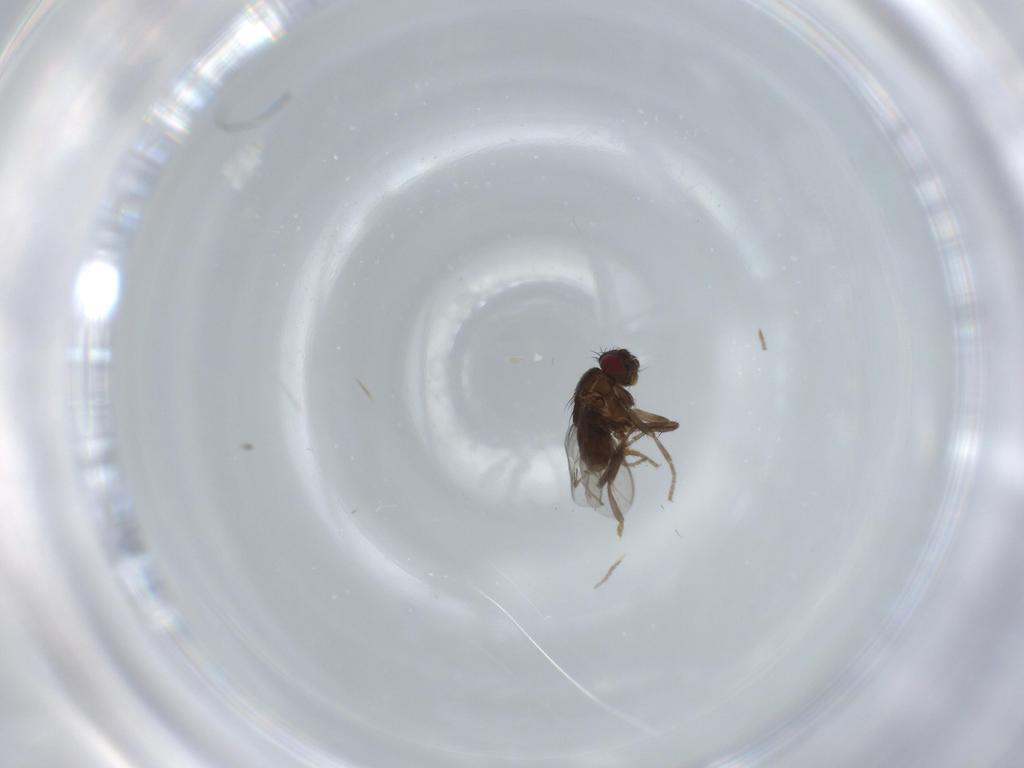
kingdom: Animalia
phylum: Arthropoda
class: Insecta
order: Diptera
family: Sphaeroceridae
